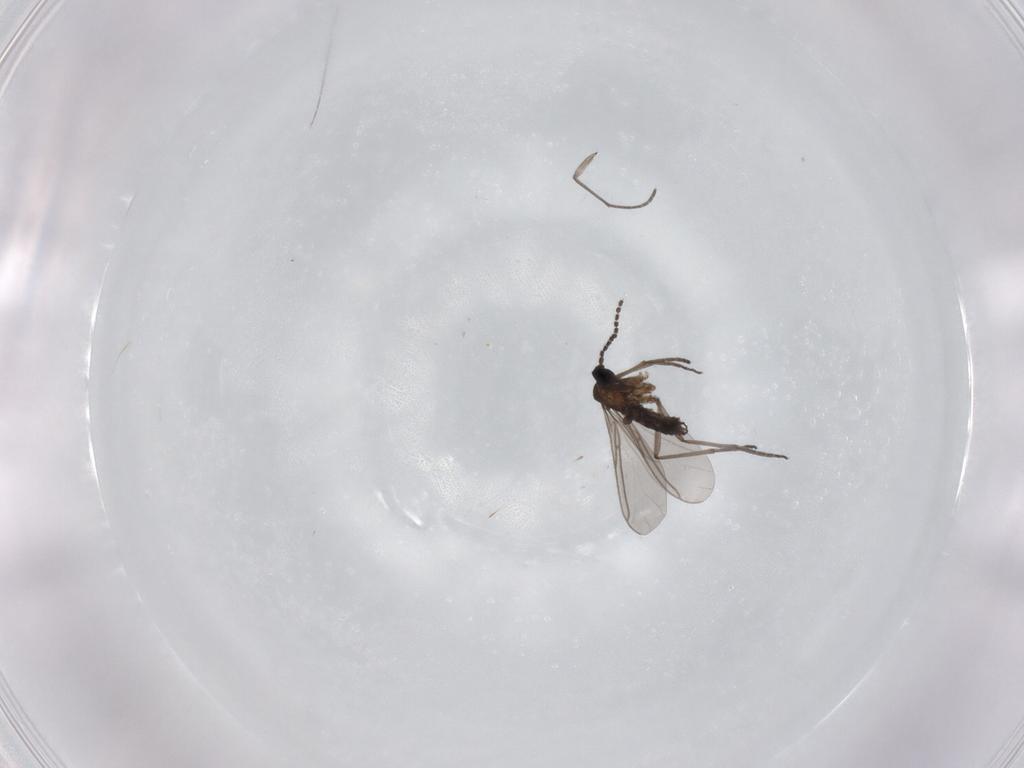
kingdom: Animalia
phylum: Arthropoda
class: Insecta
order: Diptera
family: Sciaridae
